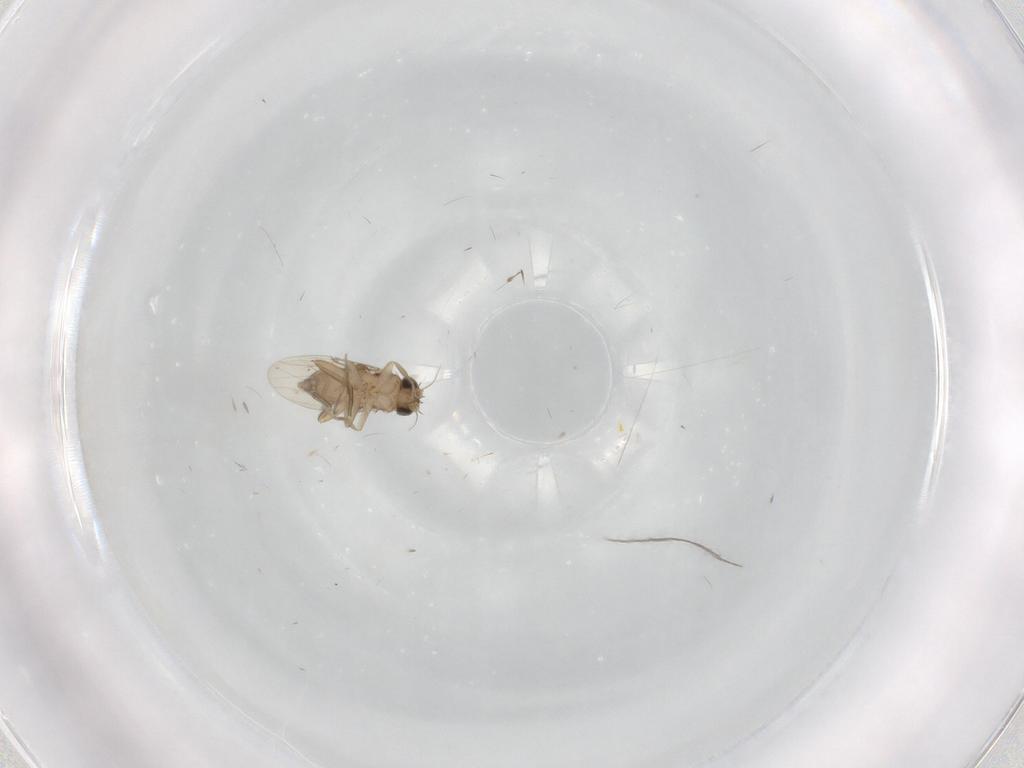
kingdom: Animalia
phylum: Arthropoda
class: Insecta
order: Diptera
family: Phoridae
